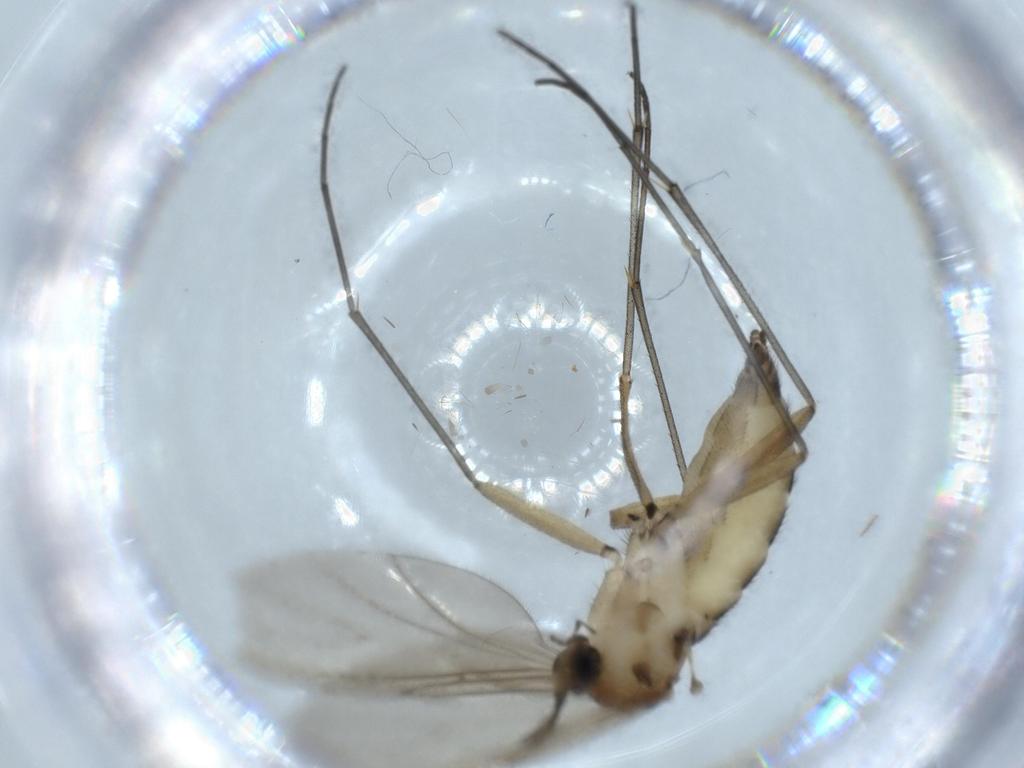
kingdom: Animalia
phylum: Arthropoda
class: Insecta
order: Diptera
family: Sciaridae
